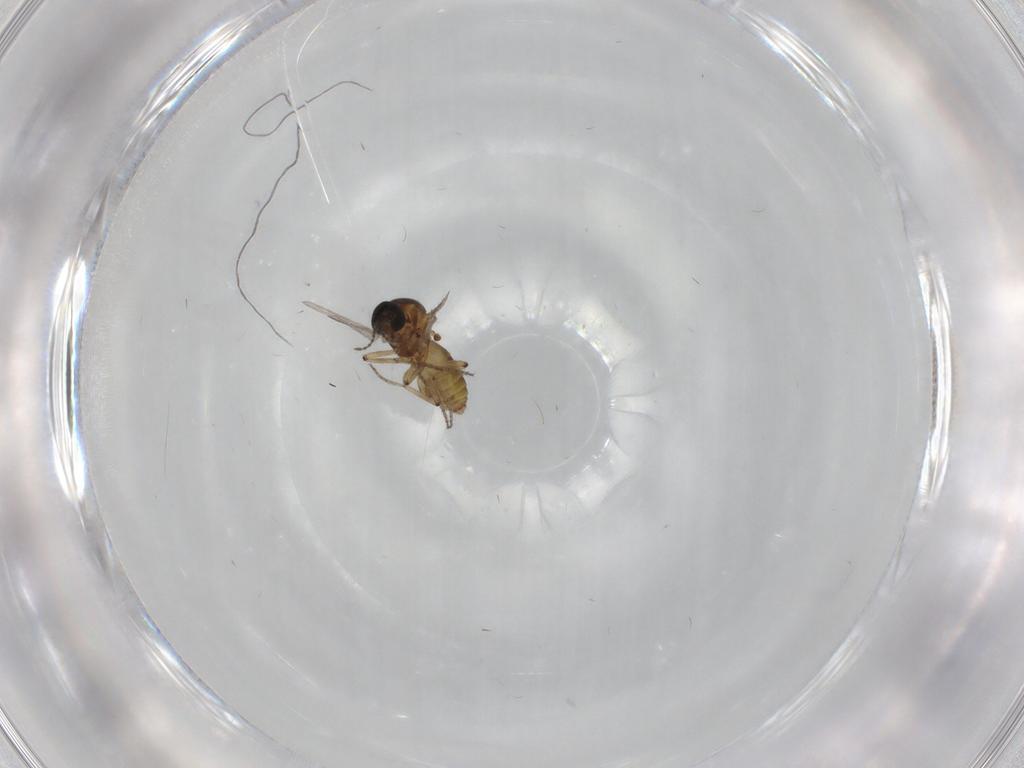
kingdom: Animalia
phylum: Arthropoda
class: Insecta
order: Diptera
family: Ceratopogonidae
